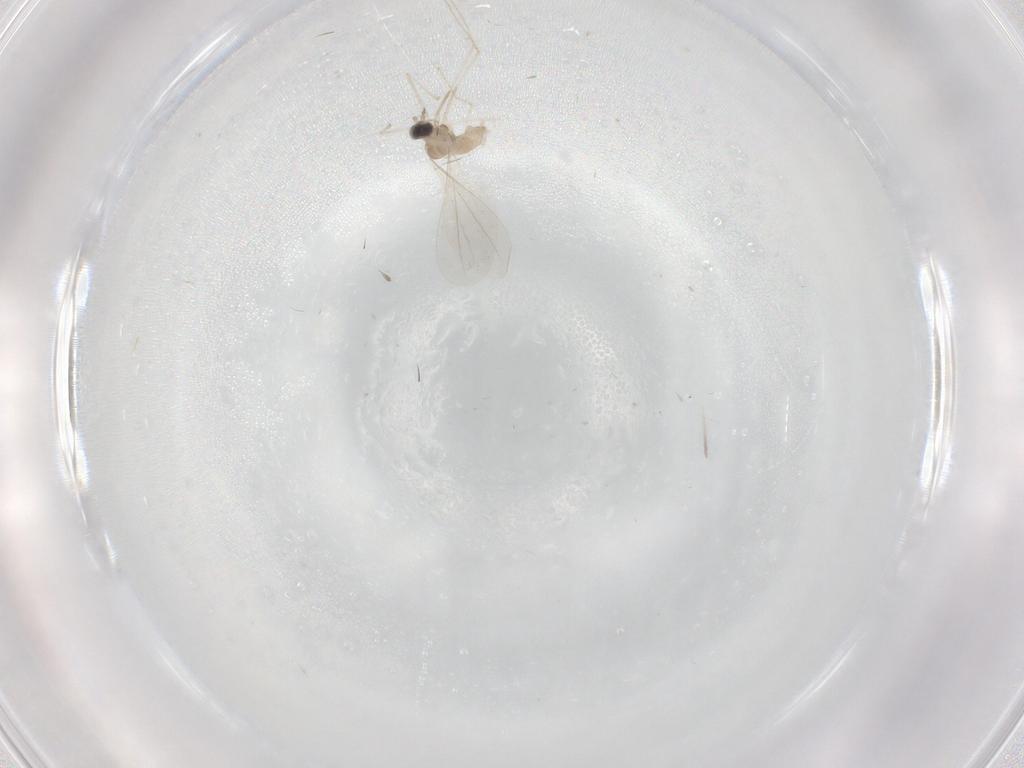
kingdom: Animalia
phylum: Arthropoda
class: Insecta
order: Diptera
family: Cecidomyiidae
